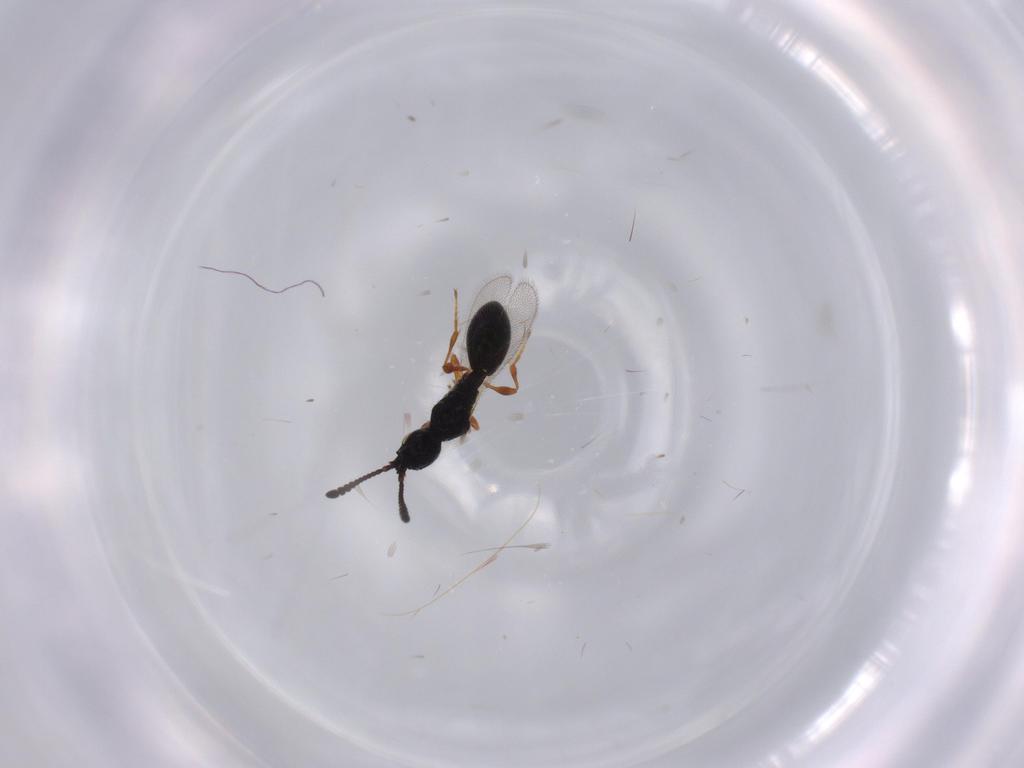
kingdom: Animalia
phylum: Arthropoda
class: Insecta
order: Hymenoptera
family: Diapriidae
